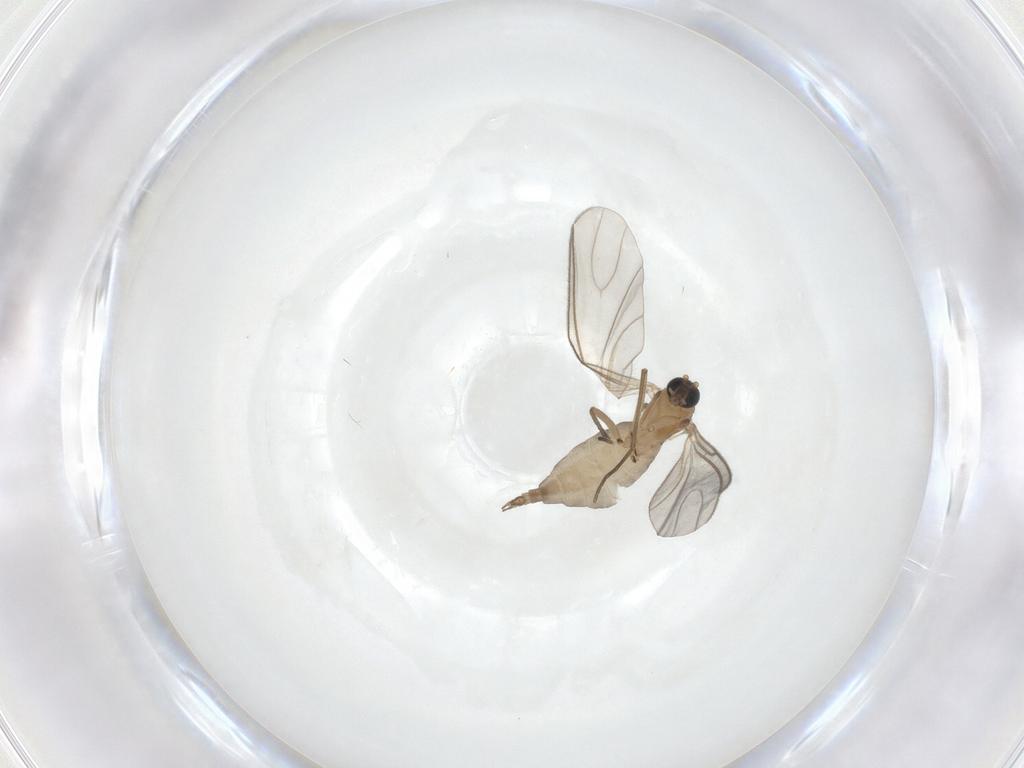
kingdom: Animalia
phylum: Arthropoda
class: Insecta
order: Diptera
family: Sciaridae
